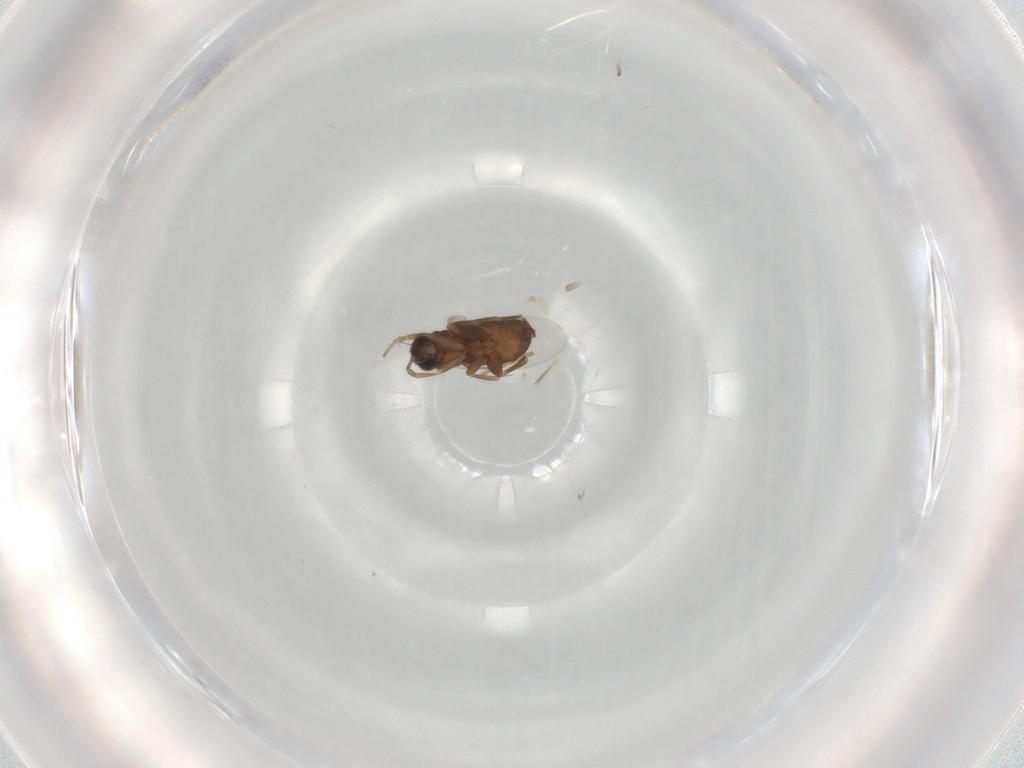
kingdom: Animalia
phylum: Arthropoda
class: Insecta
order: Diptera
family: Phoridae
